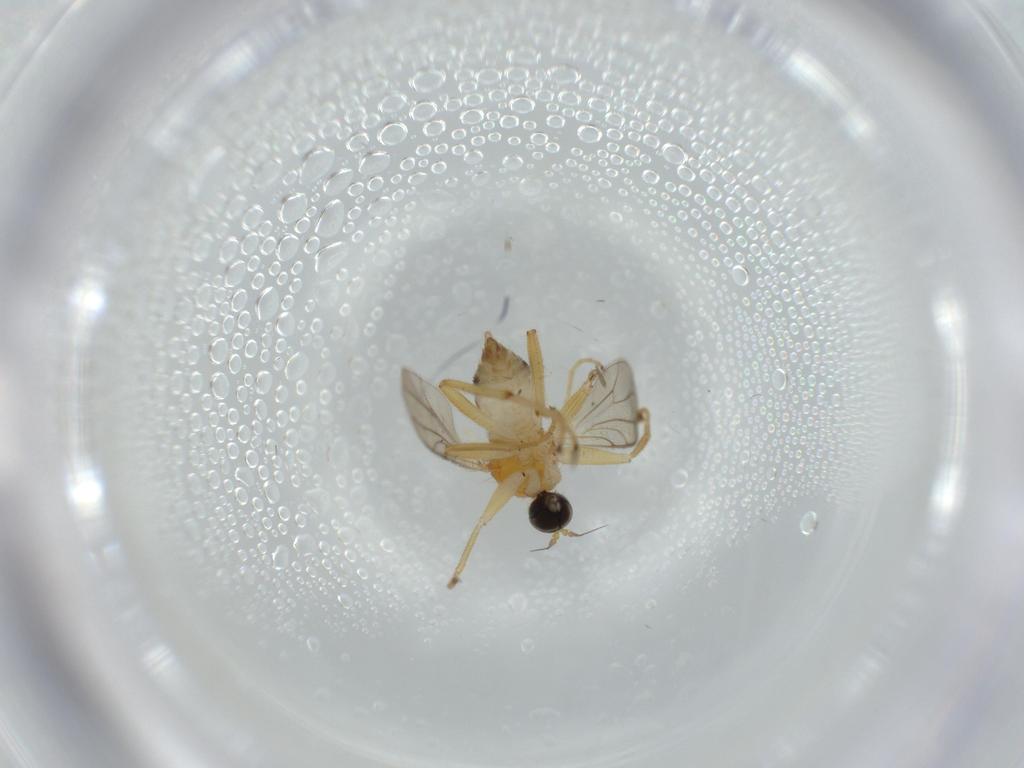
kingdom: Animalia
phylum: Arthropoda
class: Insecta
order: Diptera
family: Hybotidae
